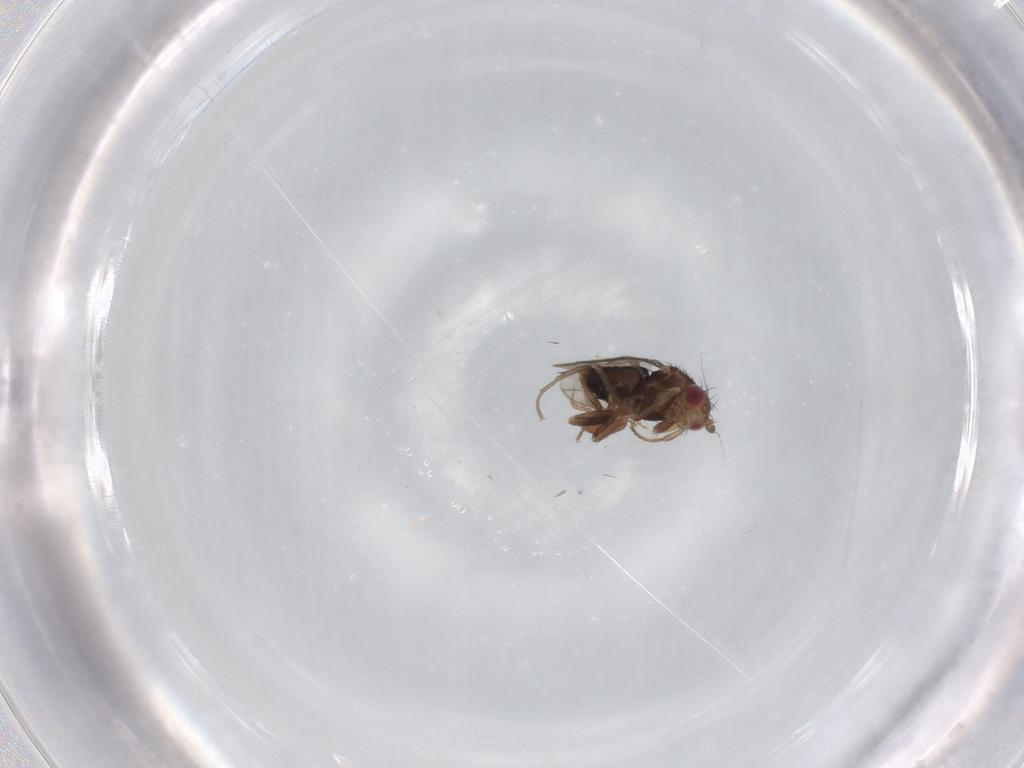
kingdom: Animalia
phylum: Arthropoda
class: Insecta
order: Diptera
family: Sphaeroceridae
